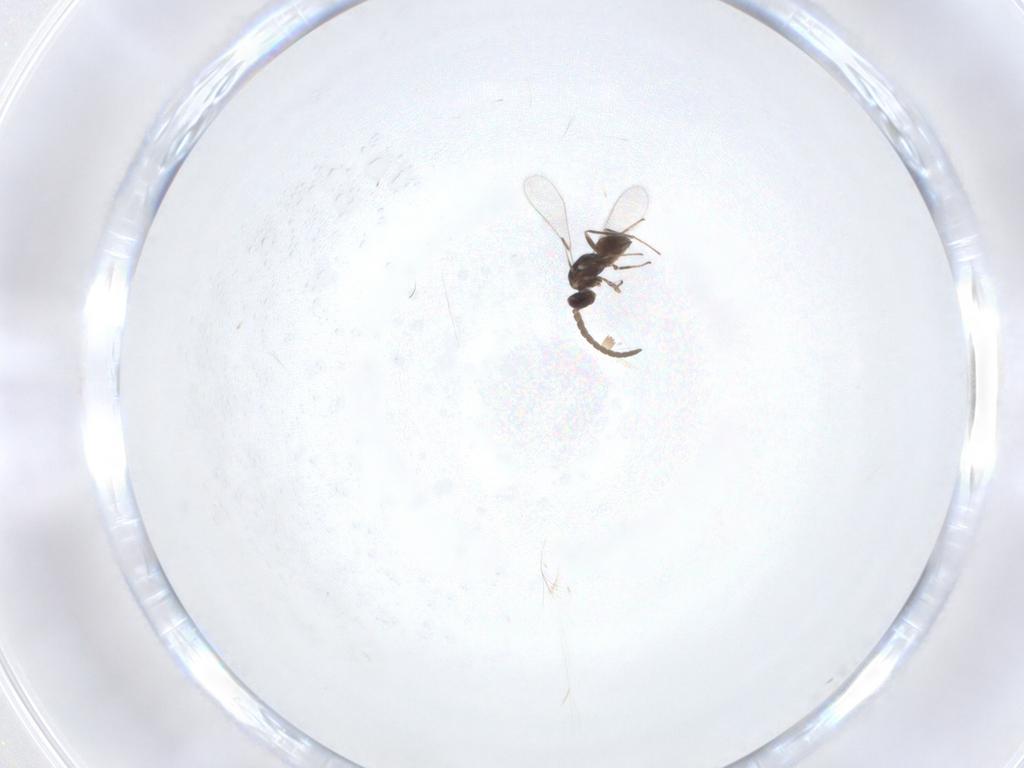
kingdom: Animalia
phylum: Arthropoda
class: Insecta
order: Hymenoptera
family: Mymaridae
